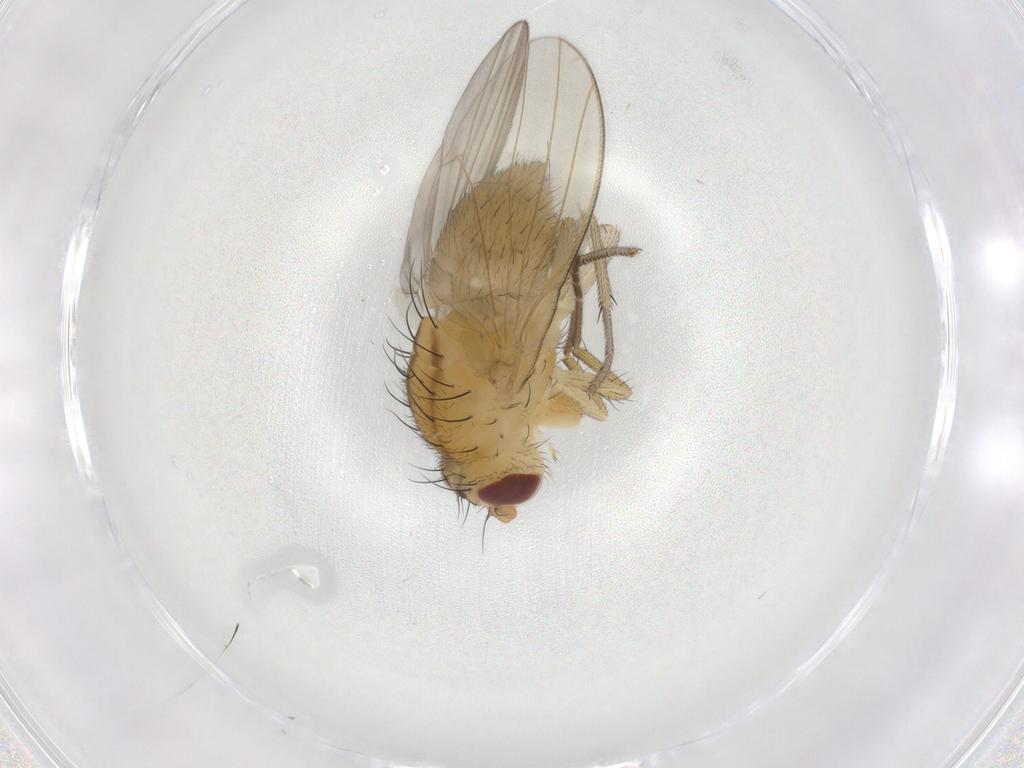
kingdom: Animalia
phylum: Arthropoda
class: Insecta
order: Diptera
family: Lauxaniidae
